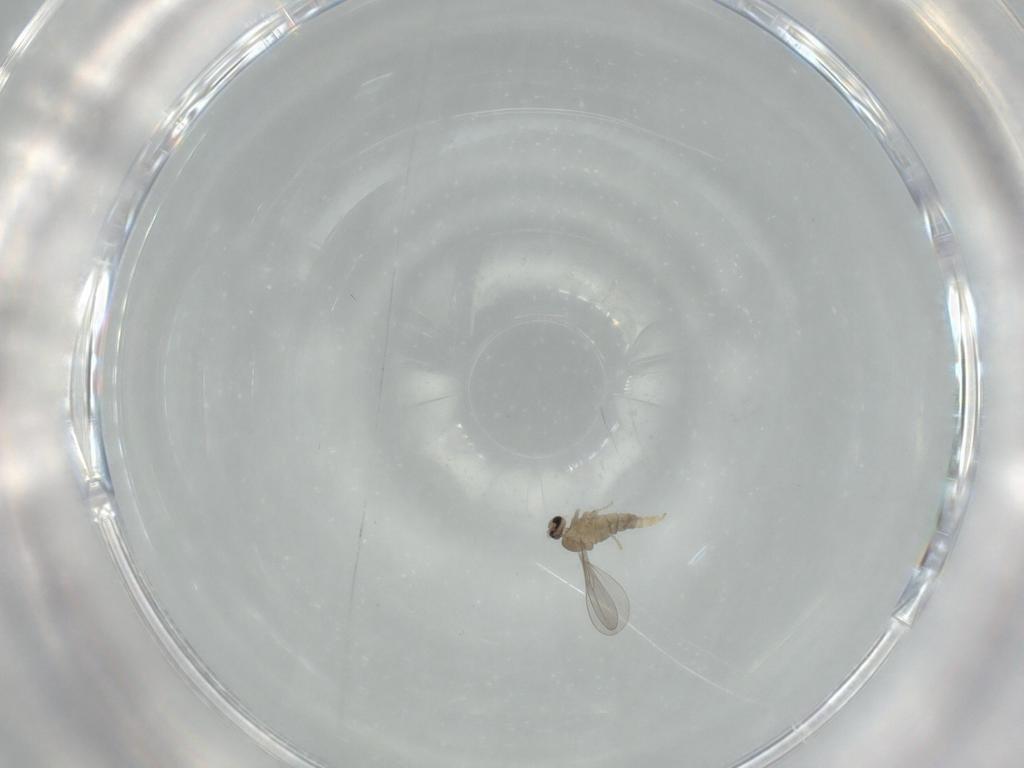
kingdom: Animalia
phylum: Arthropoda
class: Insecta
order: Diptera
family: Cecidomyiidae
